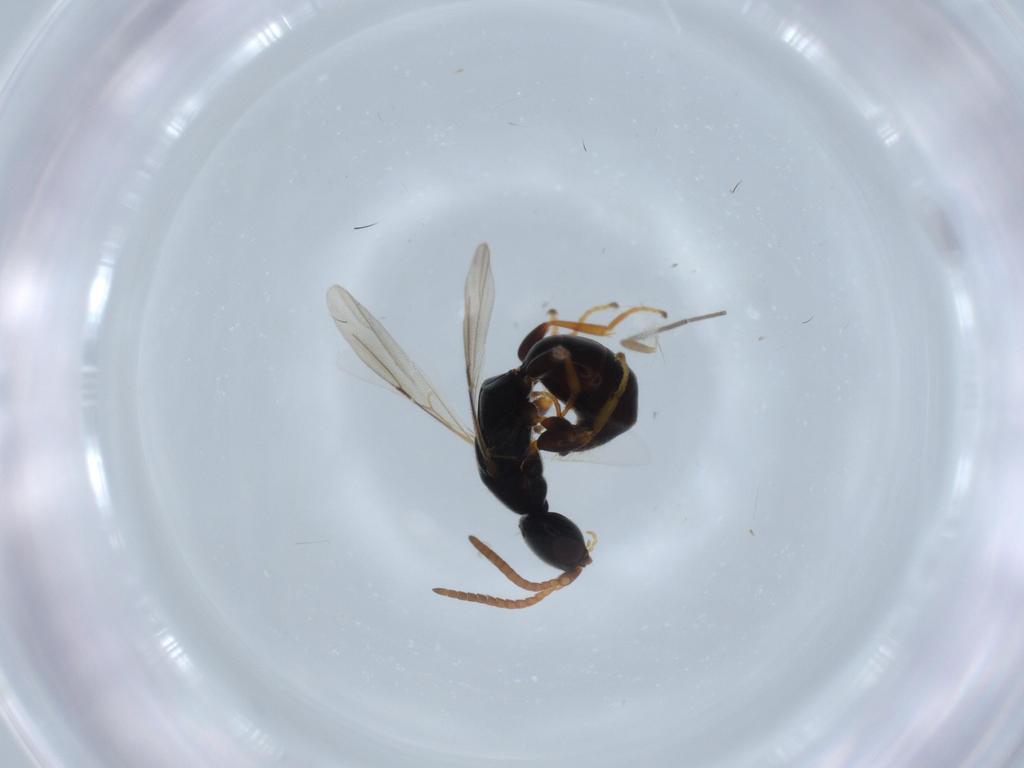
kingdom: Animalia
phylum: Arthropoda
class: Insecta
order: Hymenoptera
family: Bethylidae
